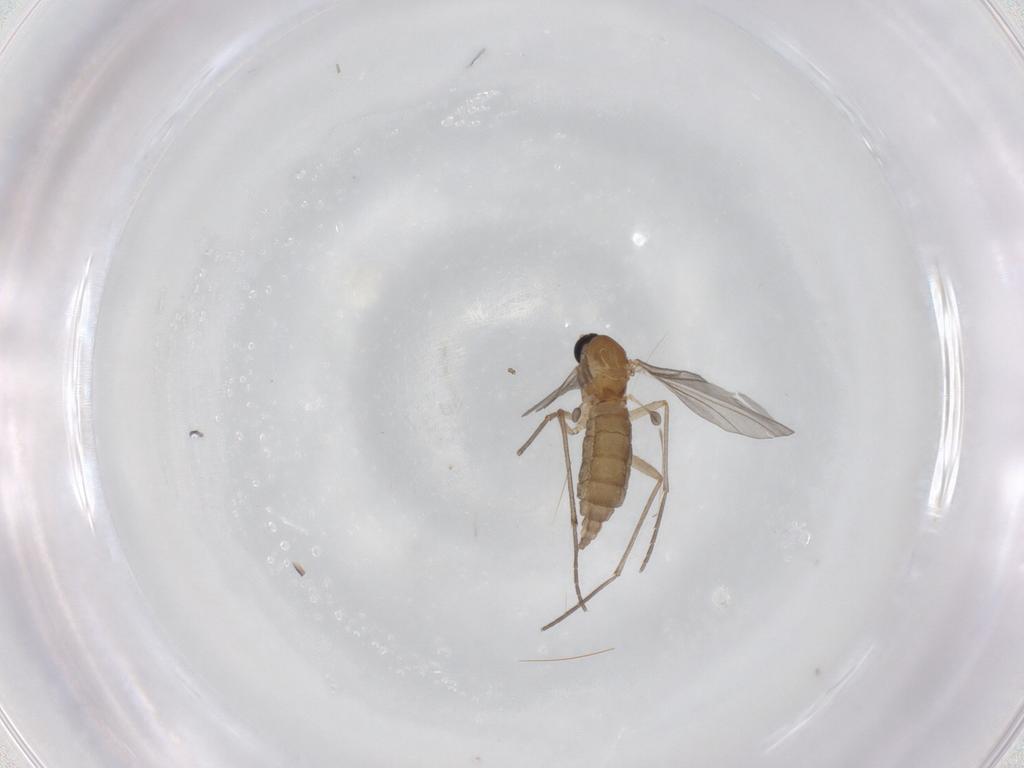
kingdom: Animalia
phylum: Arthropoda
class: Insecta
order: Diptera
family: Sciaridae
